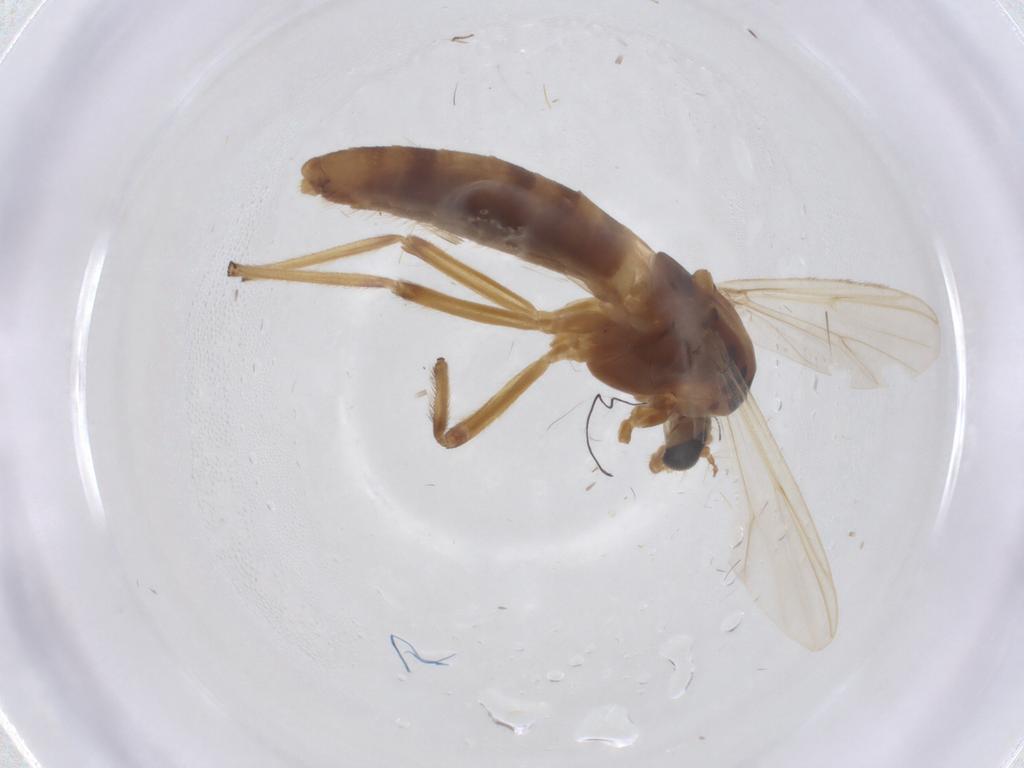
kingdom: Animalia
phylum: Arthropoda
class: Insecta
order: Diptera
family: Chironomidae
